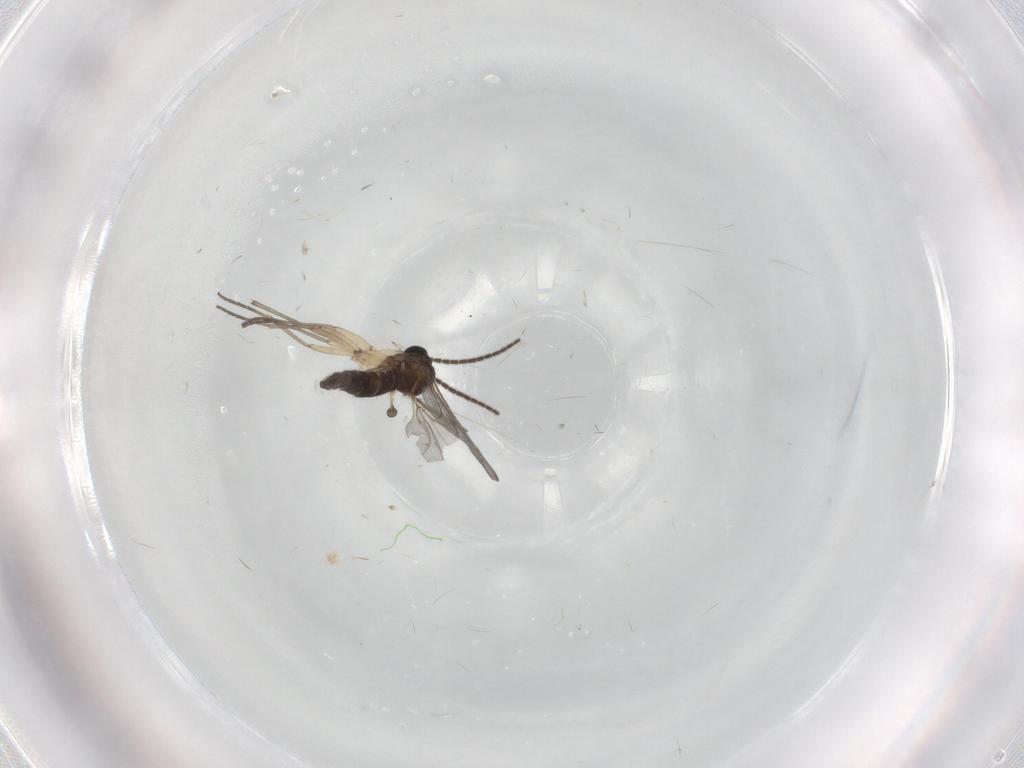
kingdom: Animalia
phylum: Arthropoda
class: Insecta
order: Diptera
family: Sciaridae
